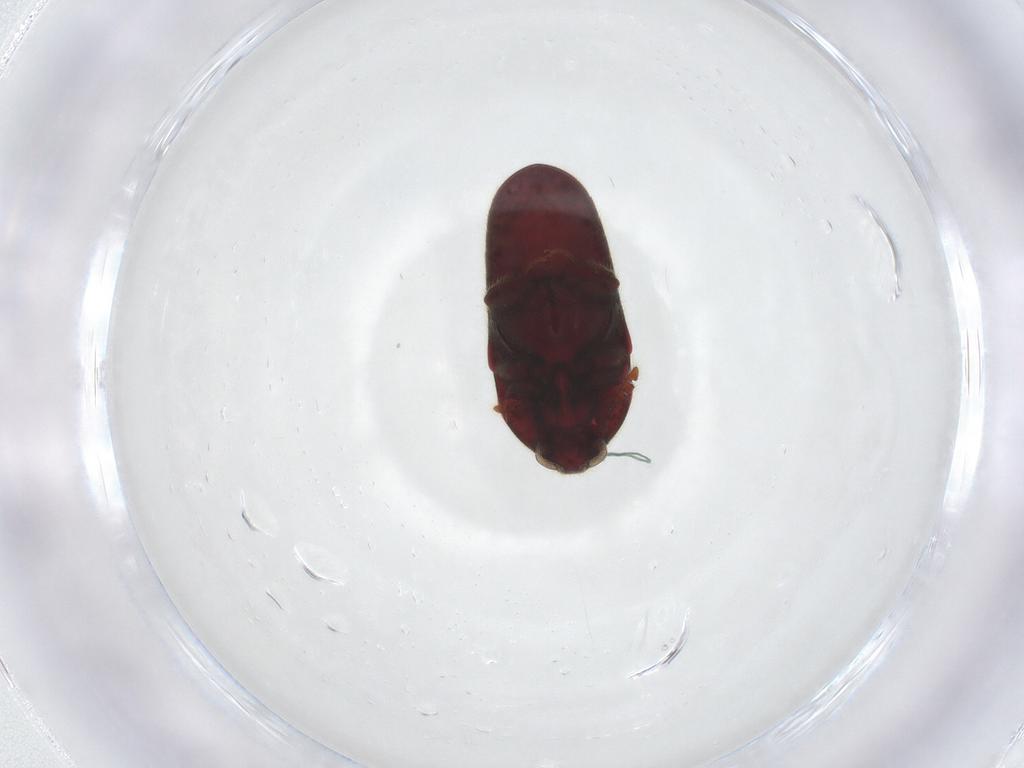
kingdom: Animalia
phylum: Arthropoda
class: Insecta
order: Coleoptera
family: Throscidae
